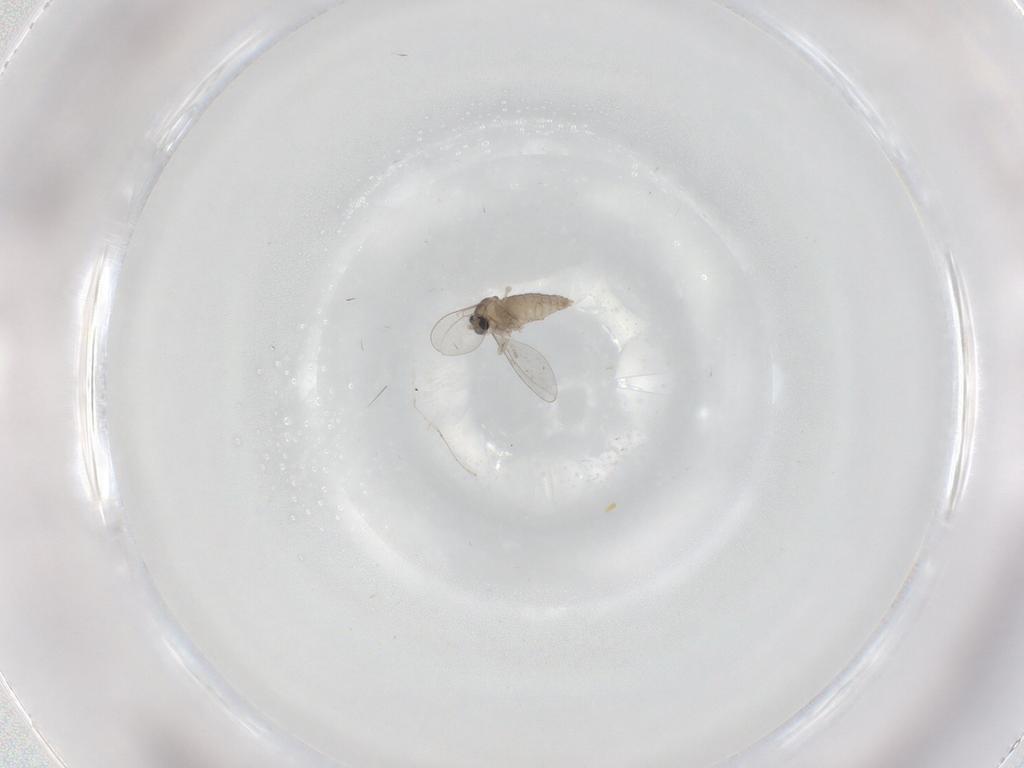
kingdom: Animalia
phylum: Arthropoda
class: Insecta
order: Diptera
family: Cecidomyiidae
